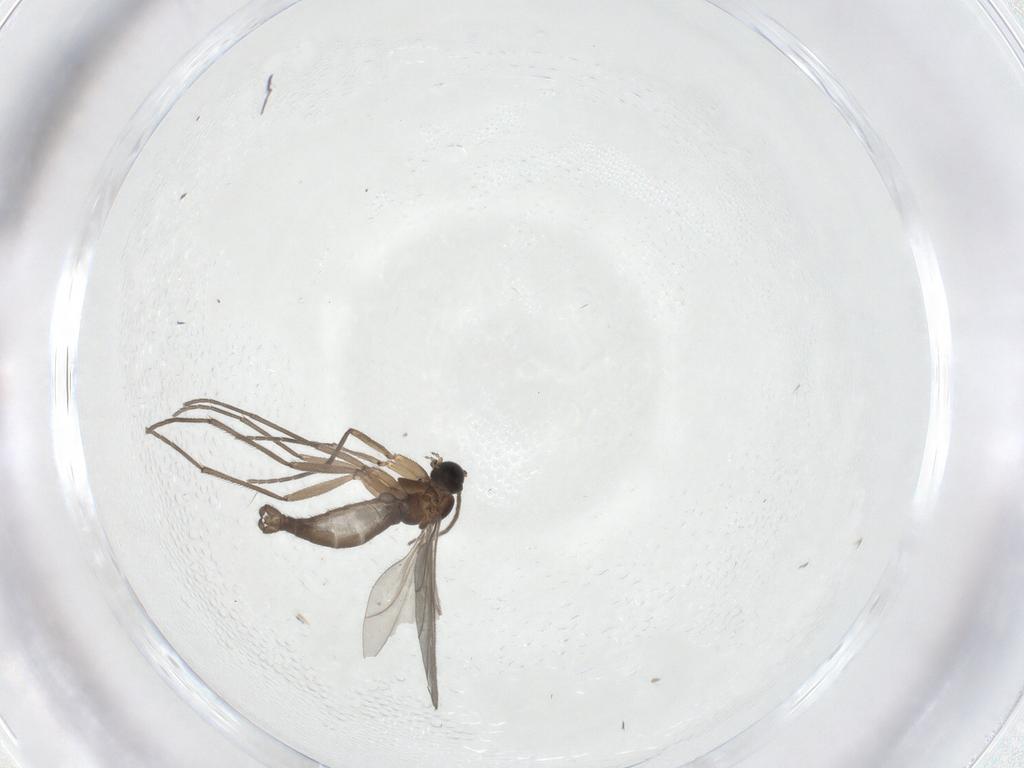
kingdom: Animalia
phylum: Arthropoda
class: Insecta
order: Diptera
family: Sciaridae
